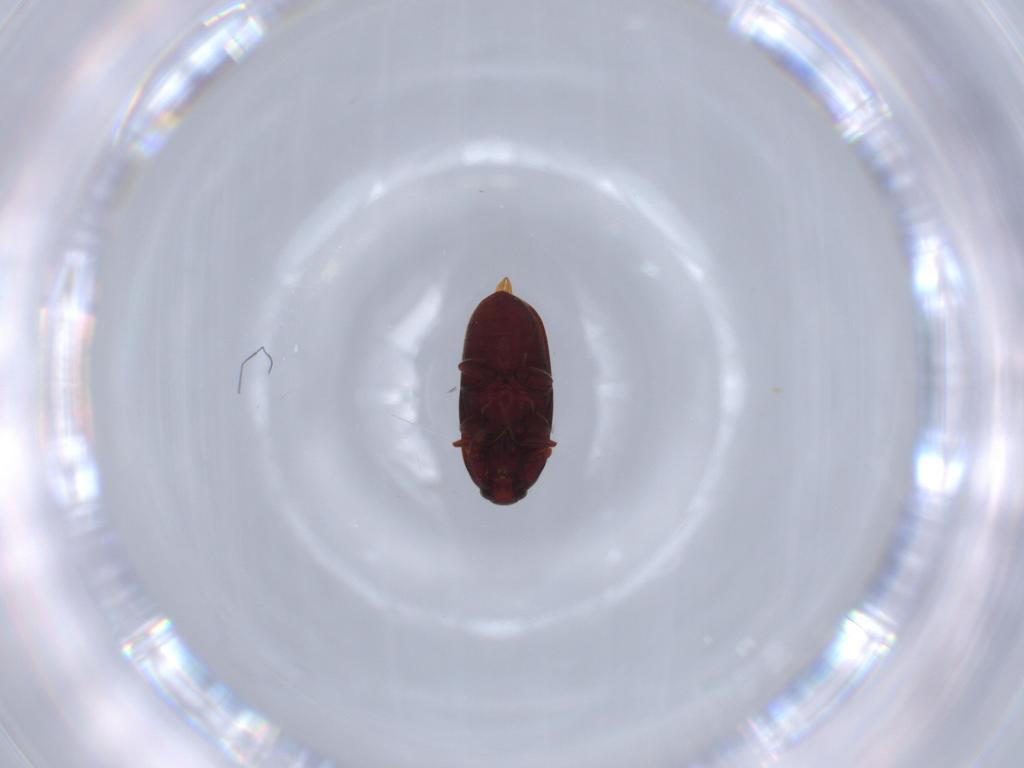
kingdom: Animalia
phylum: Arthropoda
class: Insecta
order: Coleoptera
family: Throscidae
